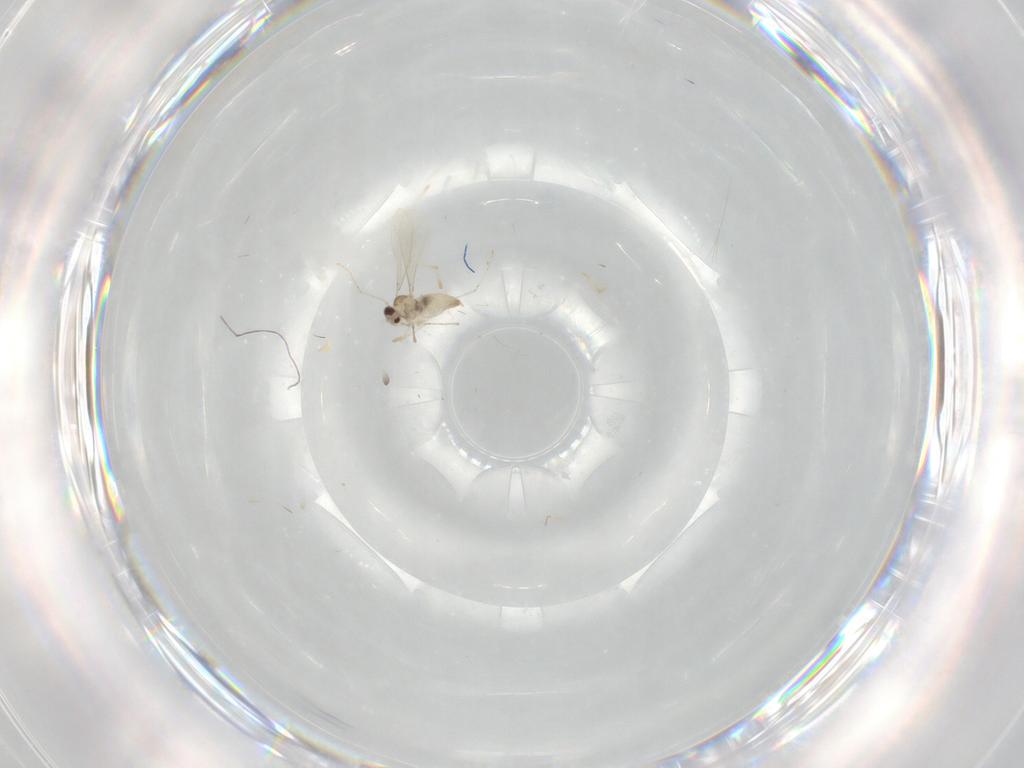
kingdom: Animalia
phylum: Arthropoda
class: Insecta
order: Diptera
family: Cecidomyiidae
